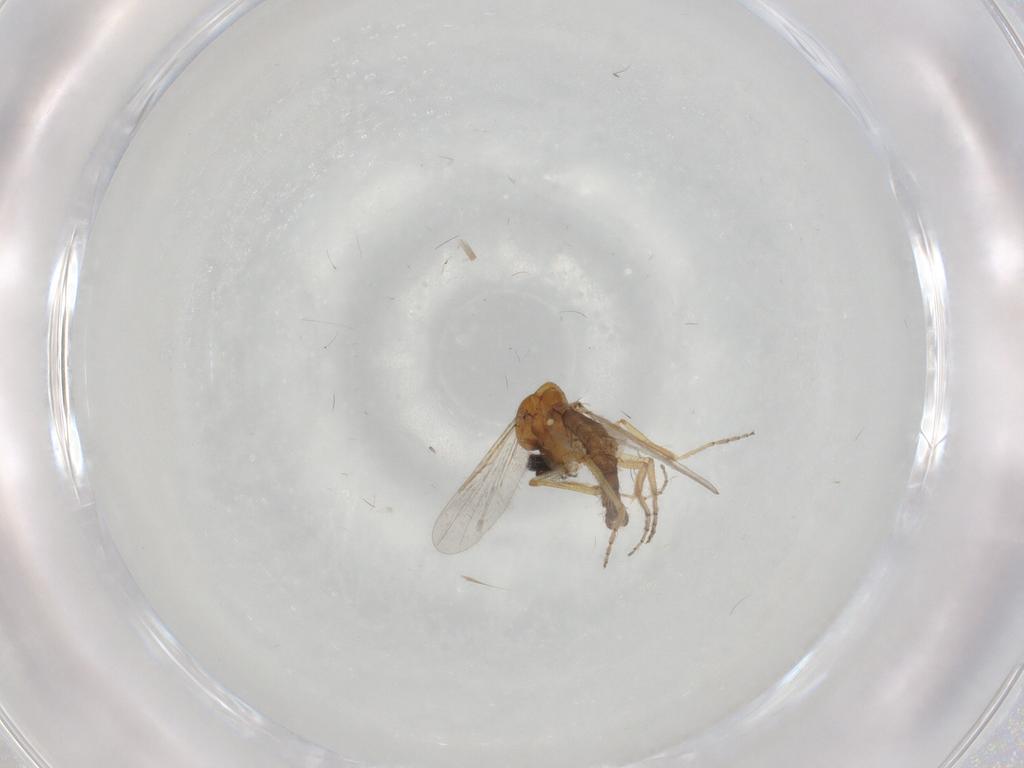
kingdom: Animalia
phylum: Arthropoda
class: Insecta
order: Diptera
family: Ceratopogonidae
